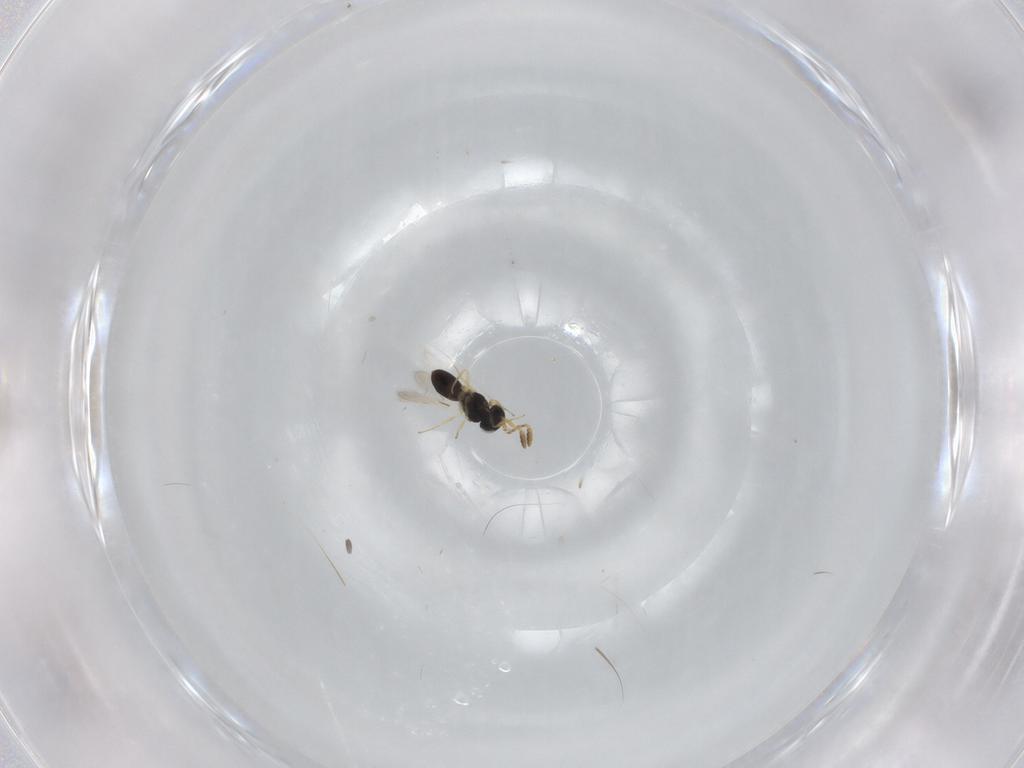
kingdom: Animalia
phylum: Arthropoda
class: Insecta
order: Hymenoptera
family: Scelionidae
